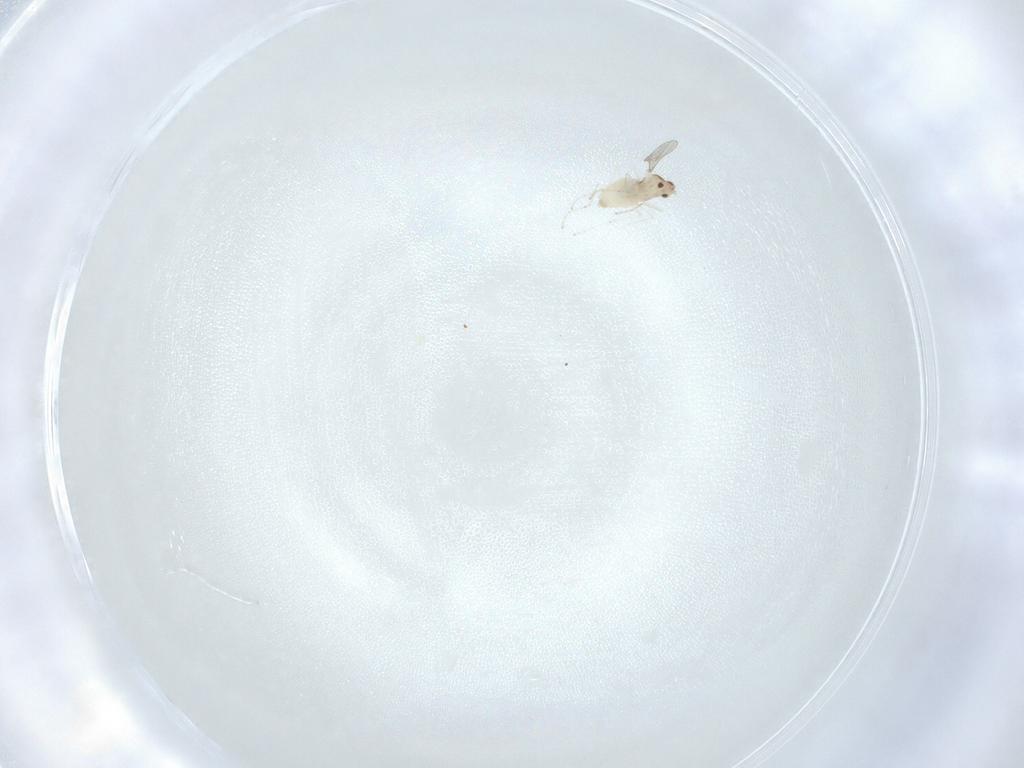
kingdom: Animalia
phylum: Arthropoda
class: Insecta
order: Diptera
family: Cecidomyiidae
